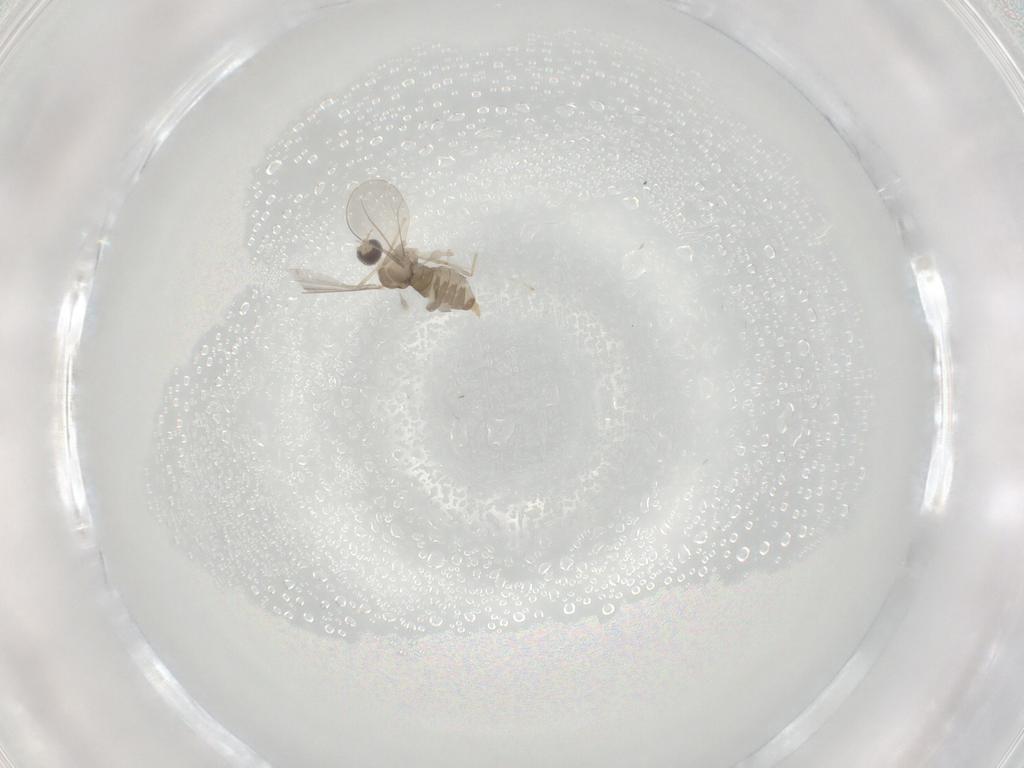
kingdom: Animalia
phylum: Arthropoda
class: Insecta
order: Diptera
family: Cecidomyiidae
